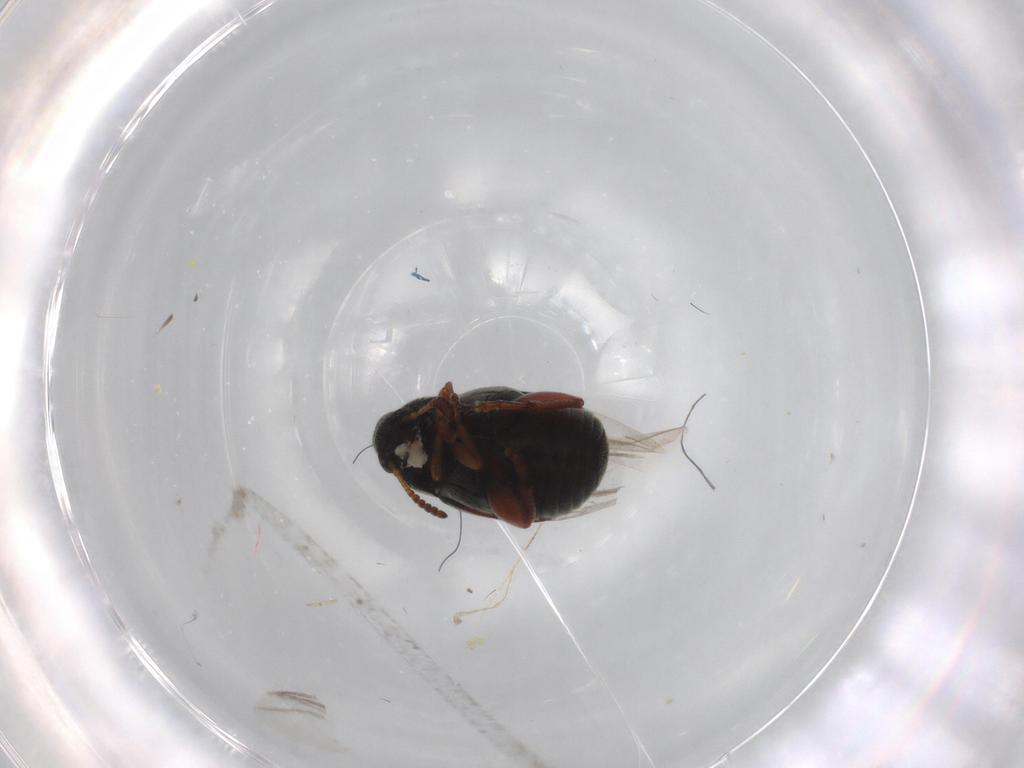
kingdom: Animalia
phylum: Arthropoda
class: Insecta
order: Coleoptera
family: Chrysomelidae
